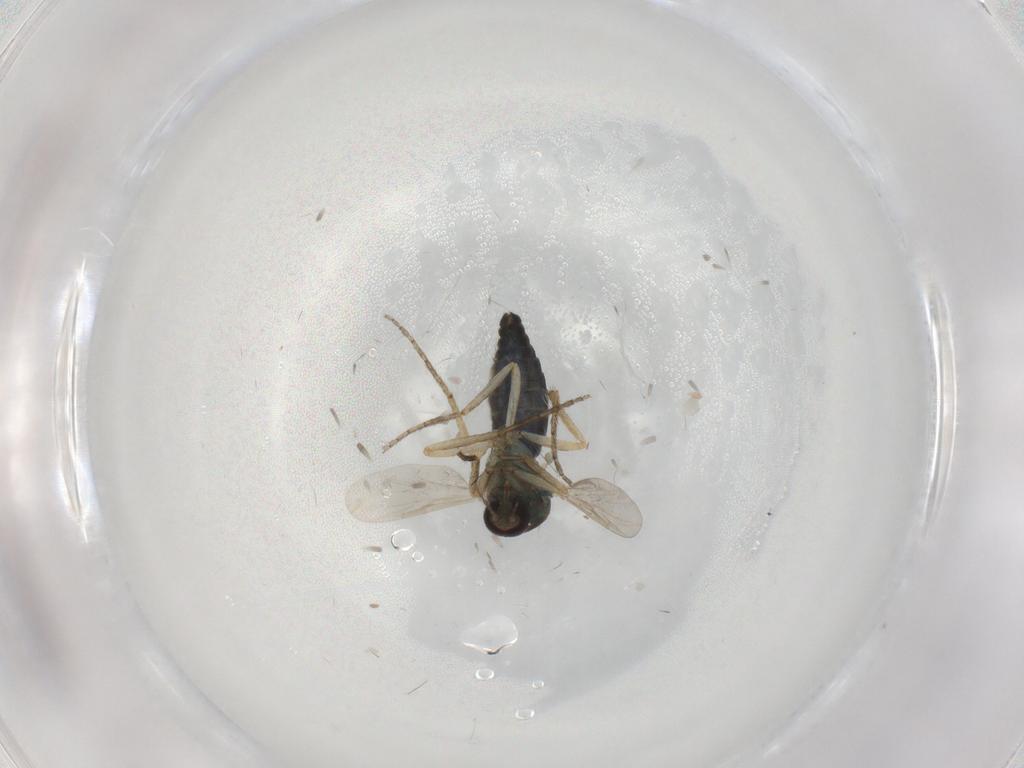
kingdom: Animalia
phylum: Arthropoda
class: Insecta
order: Diptera
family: Ceratopogonidae
